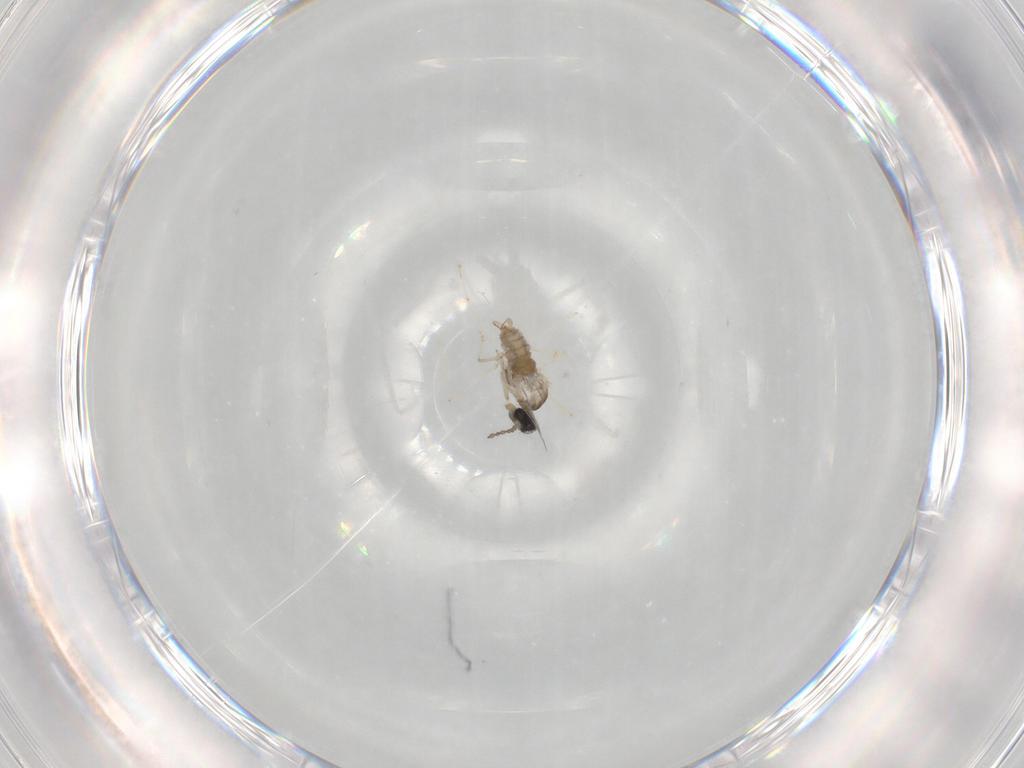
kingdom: Animalia
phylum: Arthropoda
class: Insecta
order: Diptera
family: Cecidomyiidae
